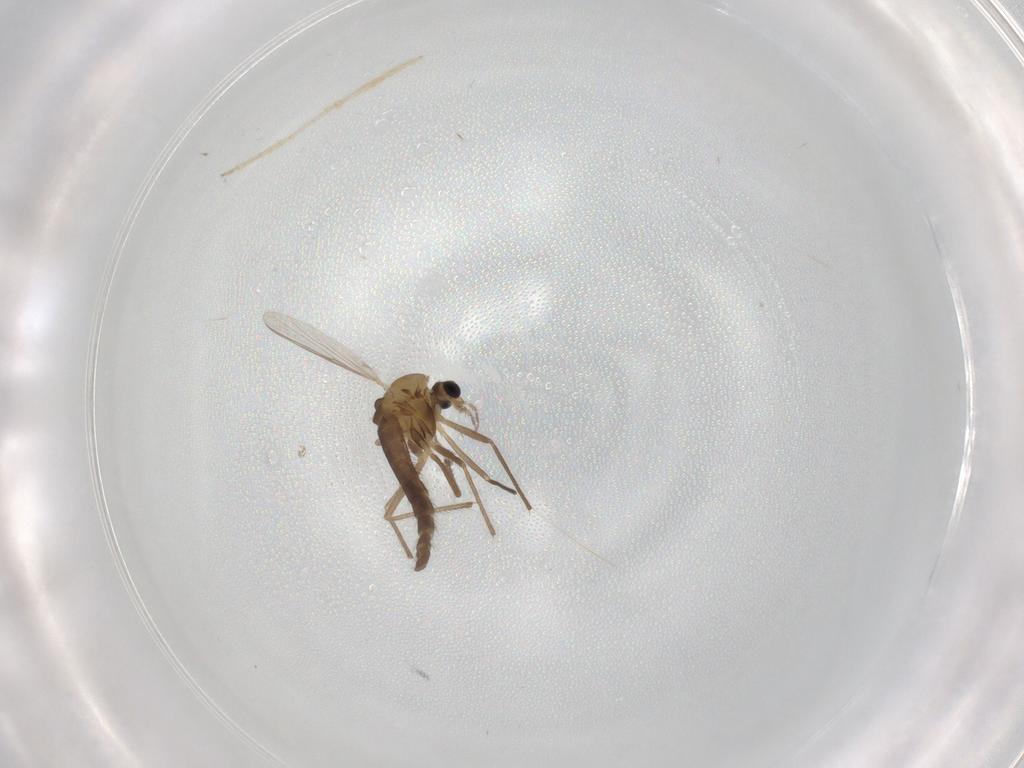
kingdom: Animalia
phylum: Arthropoda
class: Insecta
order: Diptera
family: Chironomidae
